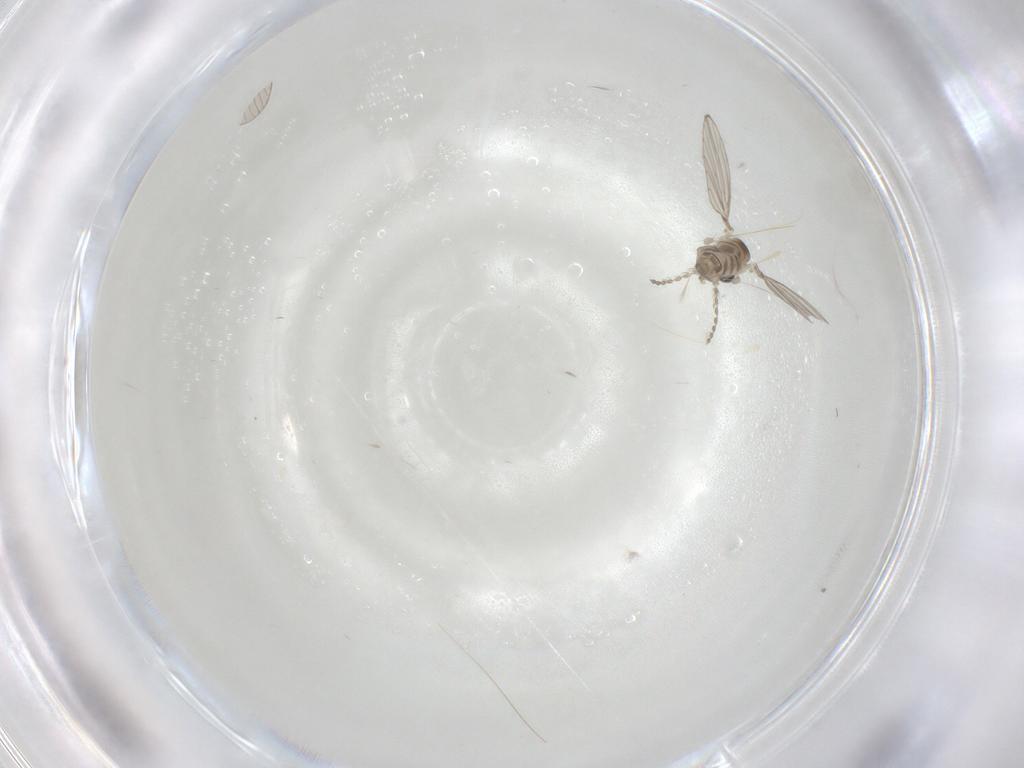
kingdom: Animalia
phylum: Arthropoda
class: Insecta
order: Diptera
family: Cecidomyiidae
